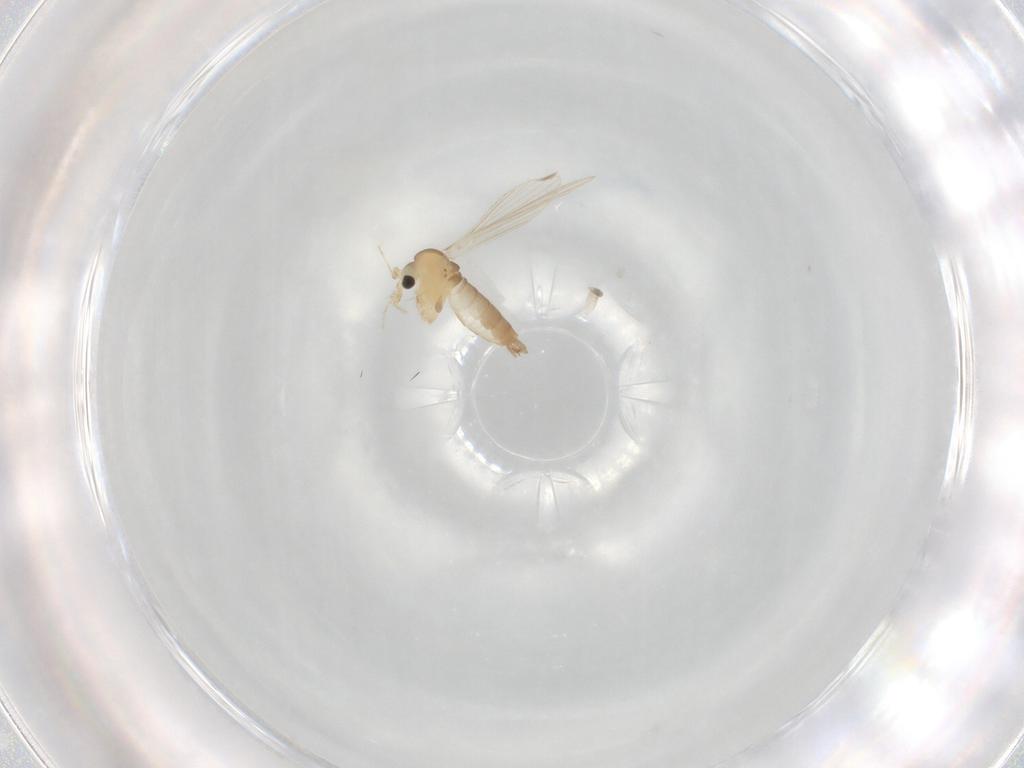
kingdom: Animalia
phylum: Arthropoda
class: Insecta
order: Diptera
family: Psychodidae
